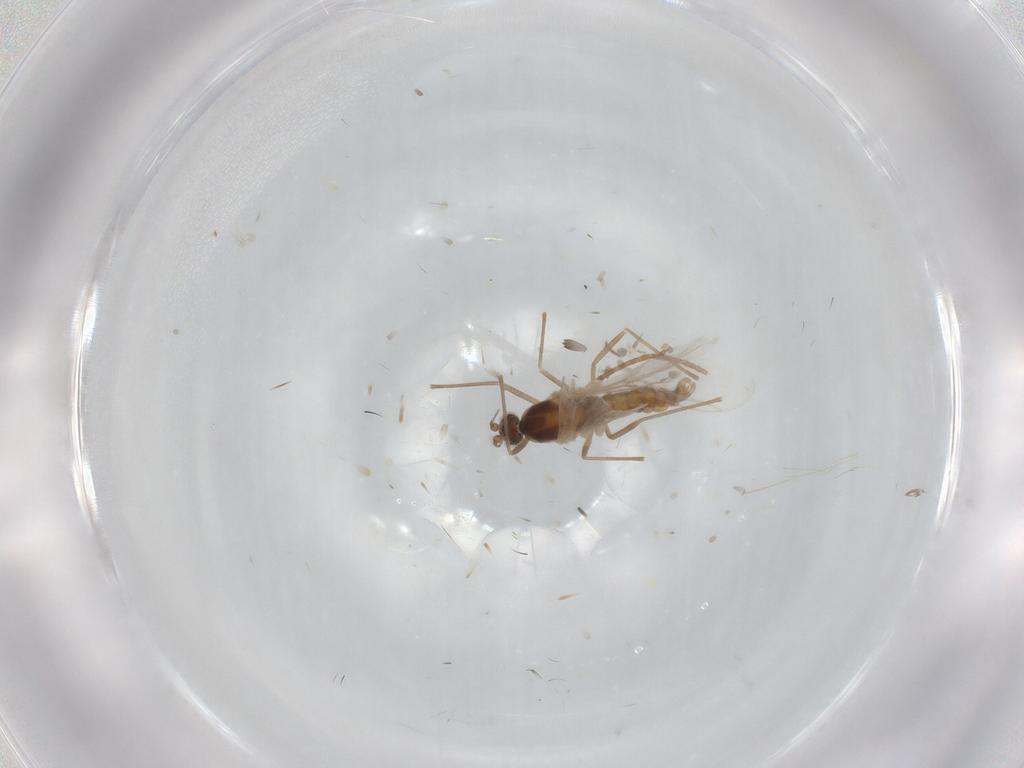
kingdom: Animalia
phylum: Arthropoda
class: Insecta
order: Diptera
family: Cecidomyiidae
